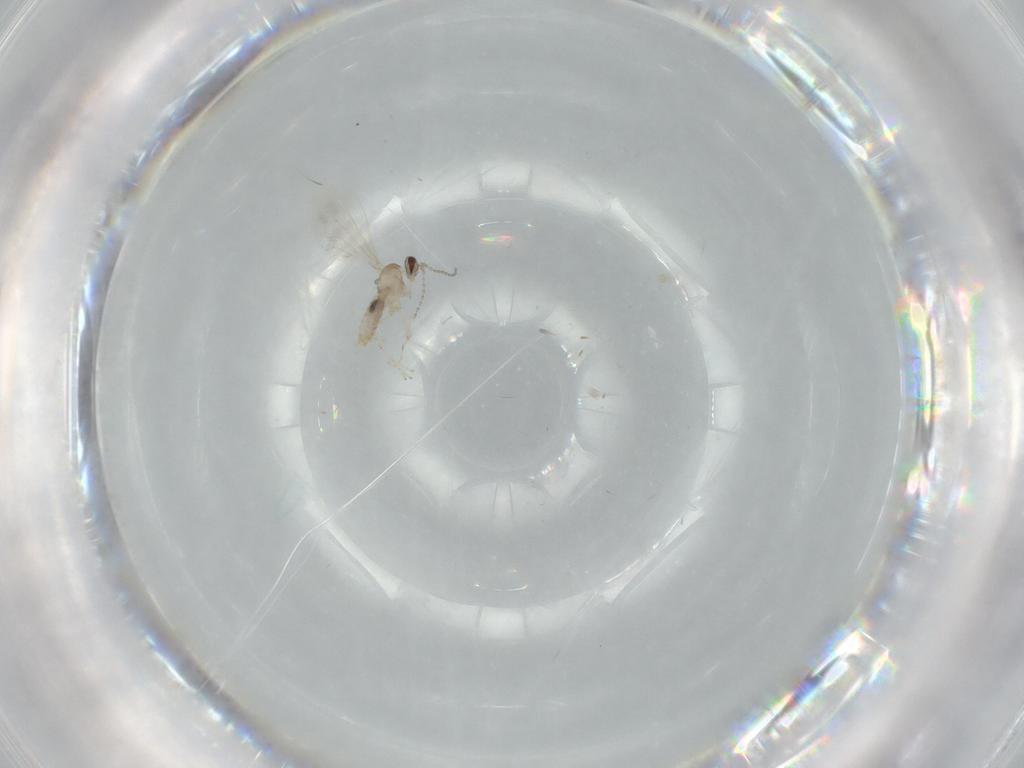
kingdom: Animalia
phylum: Arthropoda
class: Insecta
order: Diptera
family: Cecidomyiidae
